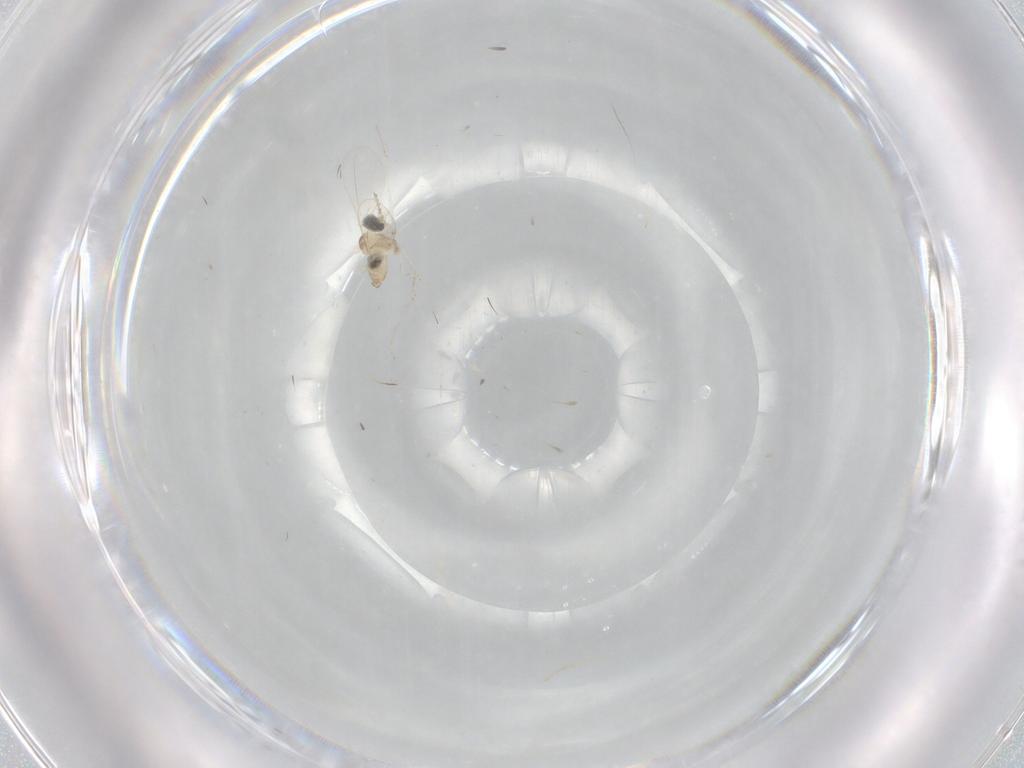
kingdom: Animalia
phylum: Arthropoda
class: Insecta
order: Diptera
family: Cecidomyiidae
